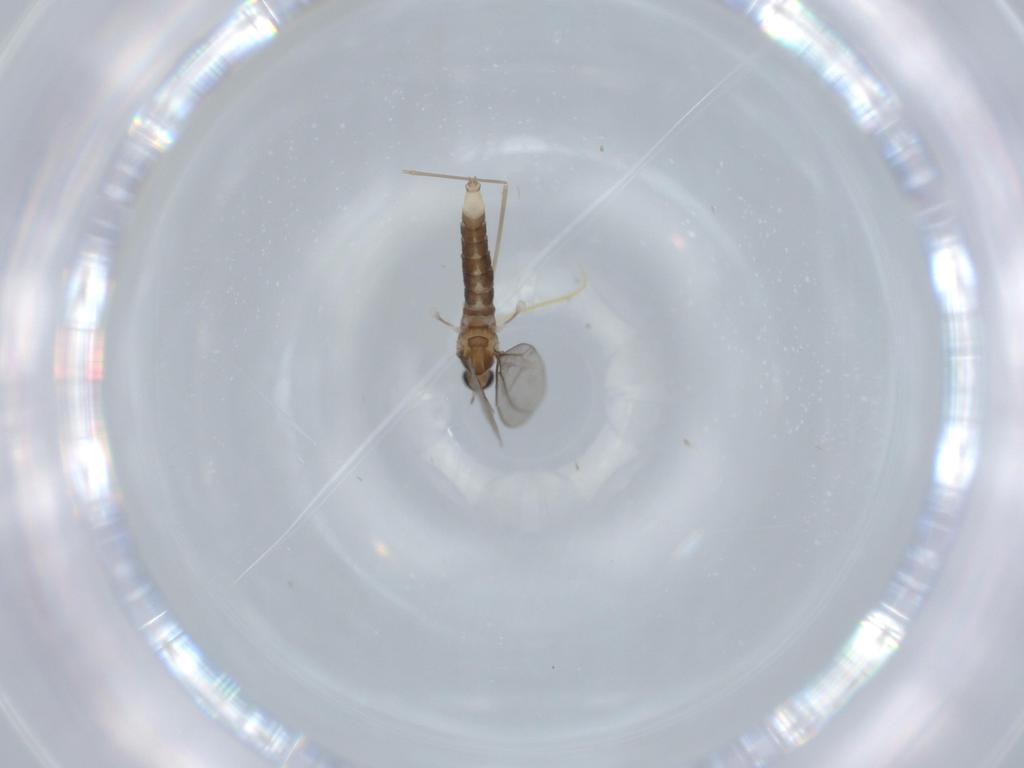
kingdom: Animalia
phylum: Arthropoda
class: Insecta
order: Diptera
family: Cecidomyiidae
